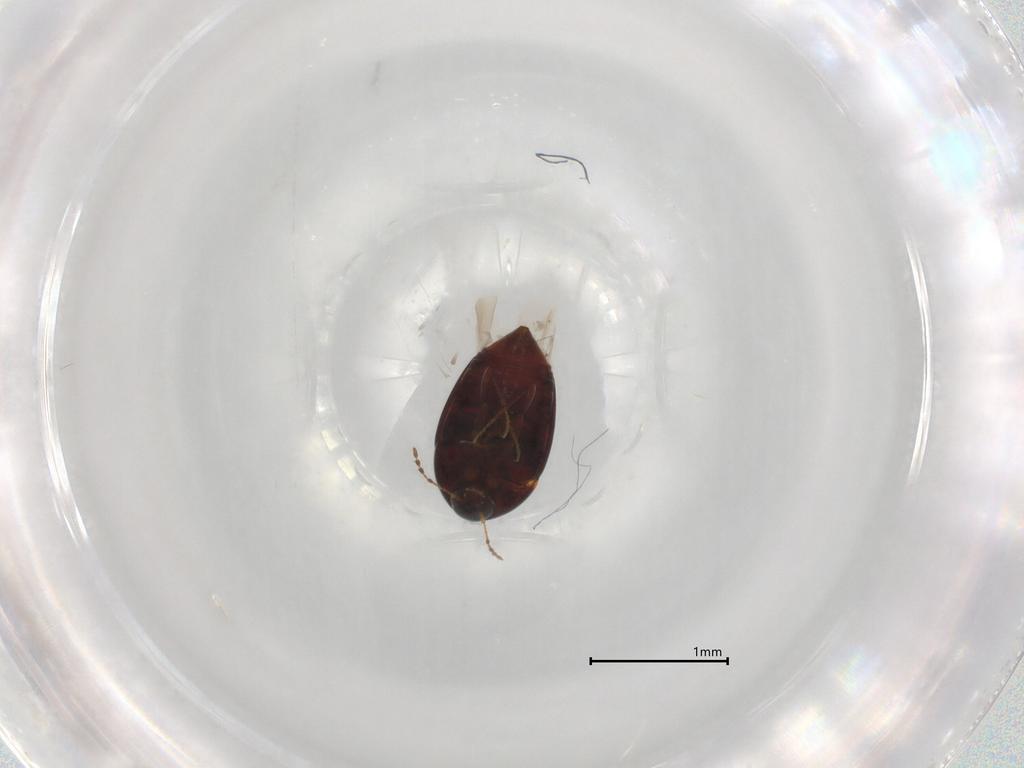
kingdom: Animalia
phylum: Arthropoda
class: Insecta
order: Coleoptera
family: Staphylinidae
